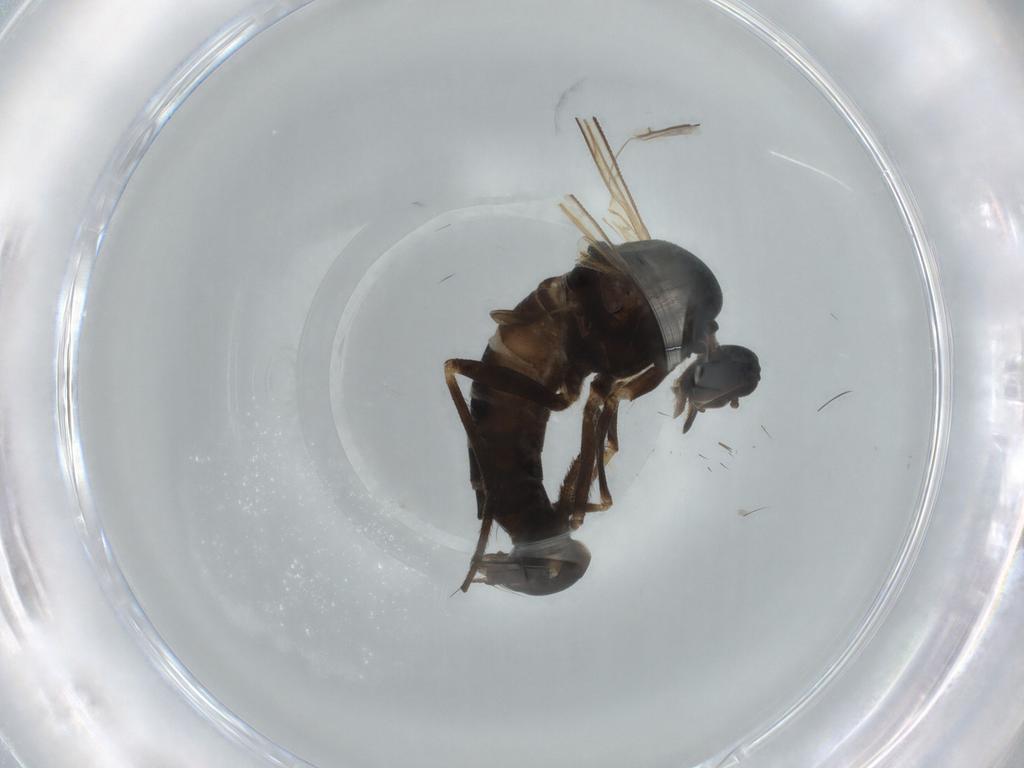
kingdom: Animalia
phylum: Arthropoda
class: Insecta
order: Diptera
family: Empididae
